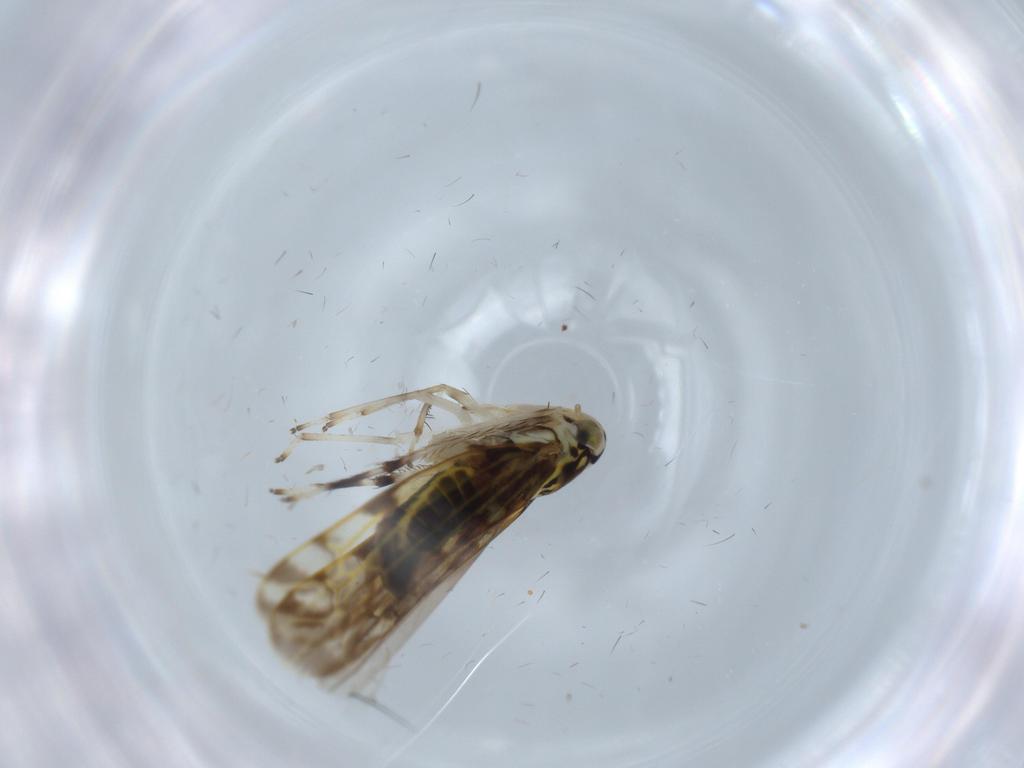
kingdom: Animalia
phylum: Arthropoda
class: Insecta
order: Hemiptera
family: Cicadellidae
